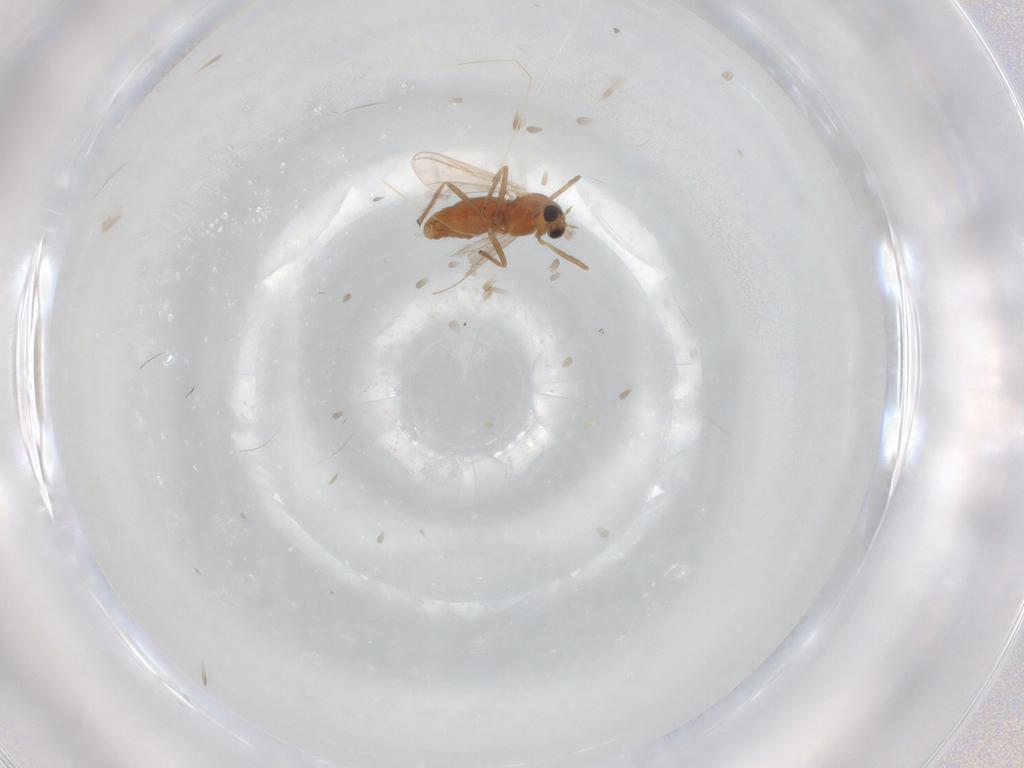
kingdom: Animalia
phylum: Arthropoda
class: Insecta
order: Diptera
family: Chironomidae
